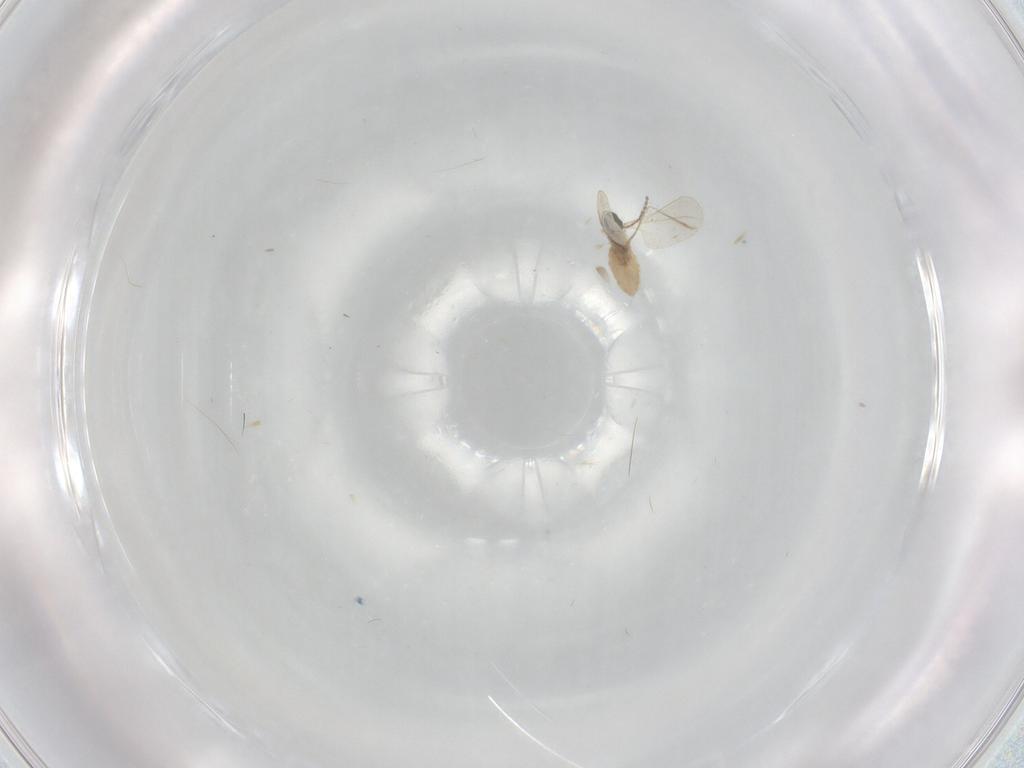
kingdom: Animalia
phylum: Arthropoda
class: Insecta
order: Diptera
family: Cecidomyiidae
